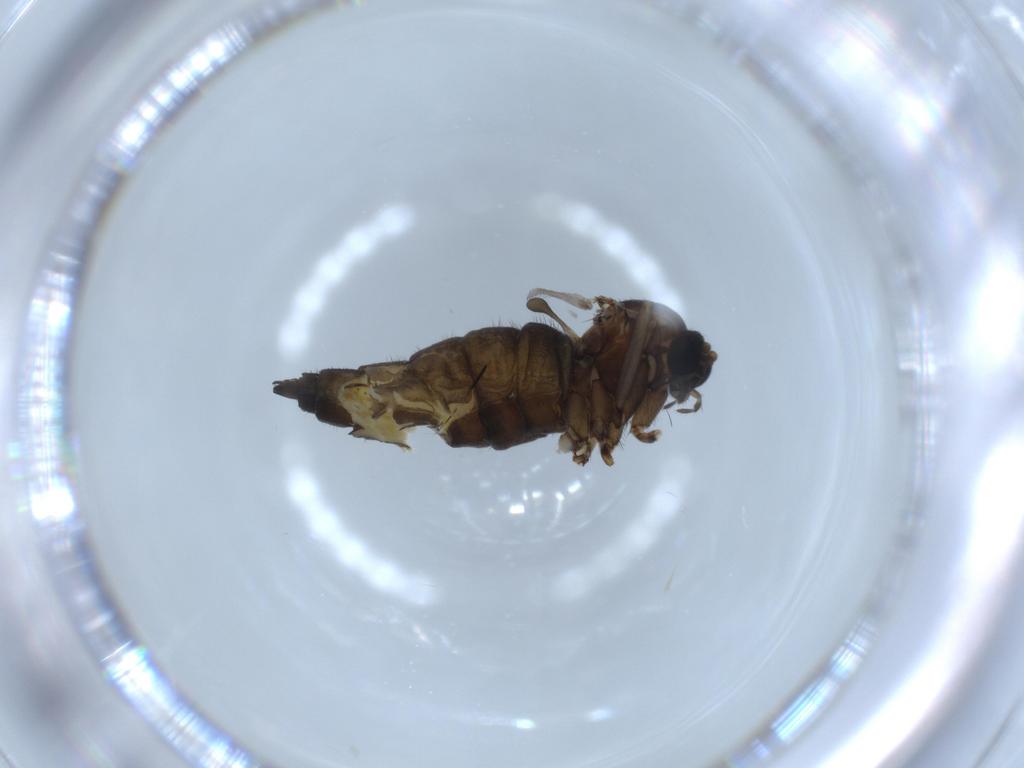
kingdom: Animalia
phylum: Arthropoda
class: Insecta
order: Diptera
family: Sciaridae
